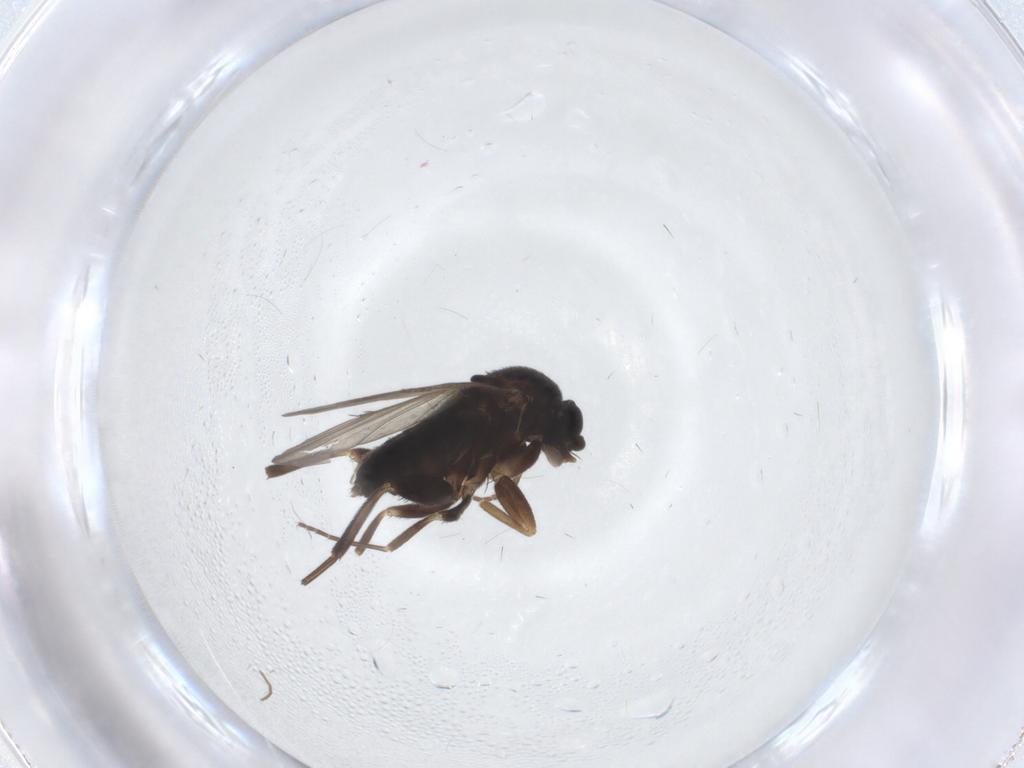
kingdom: Animalia
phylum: Arthropoda
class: Insecta
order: Diptera
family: Phoridae
